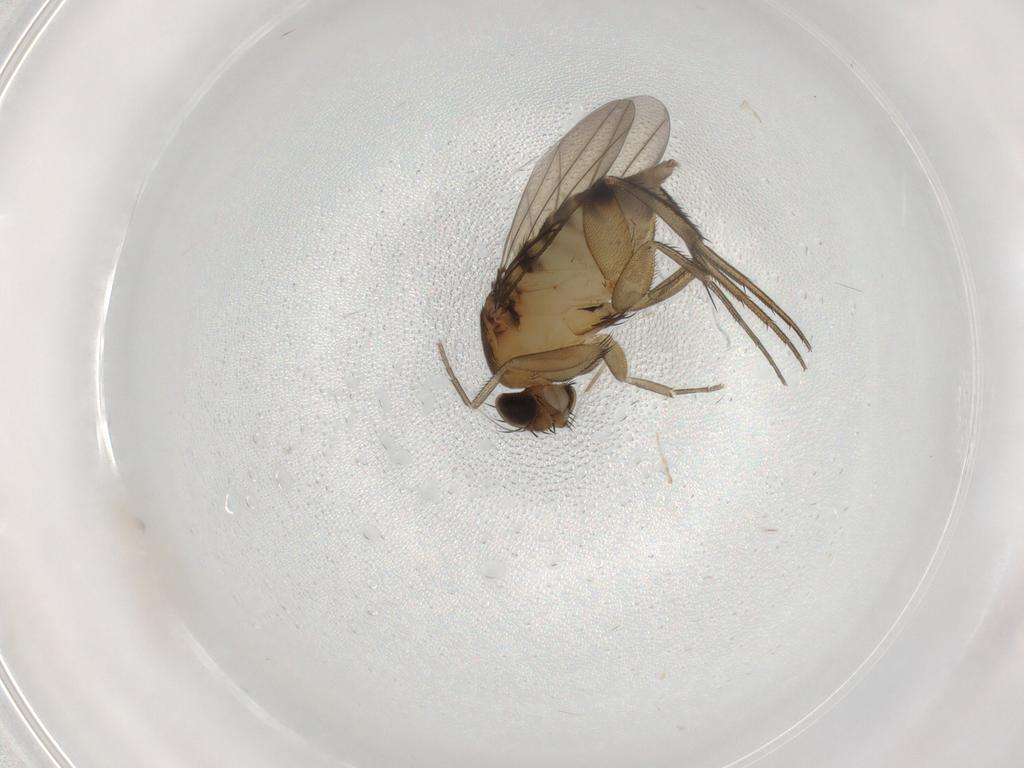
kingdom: Animalia
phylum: Arthropoda
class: Insecta
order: Diptera
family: Limoniidae
